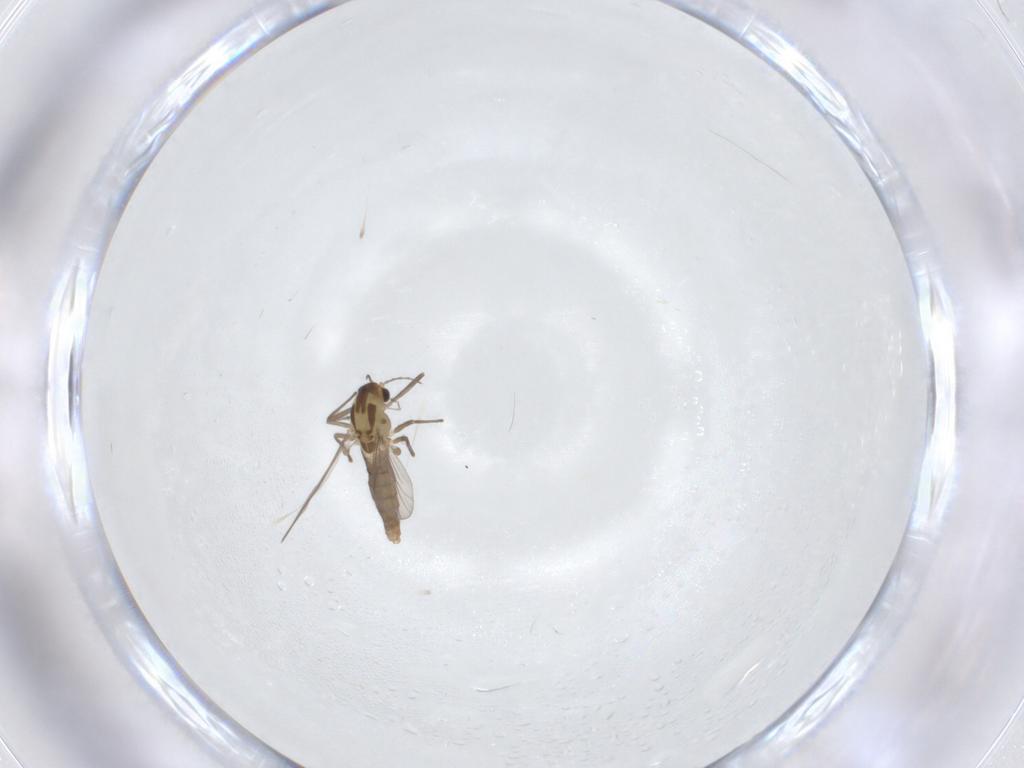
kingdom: Animalia
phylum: Arthropoda
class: Insecta
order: Diptera
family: Chironomidae
